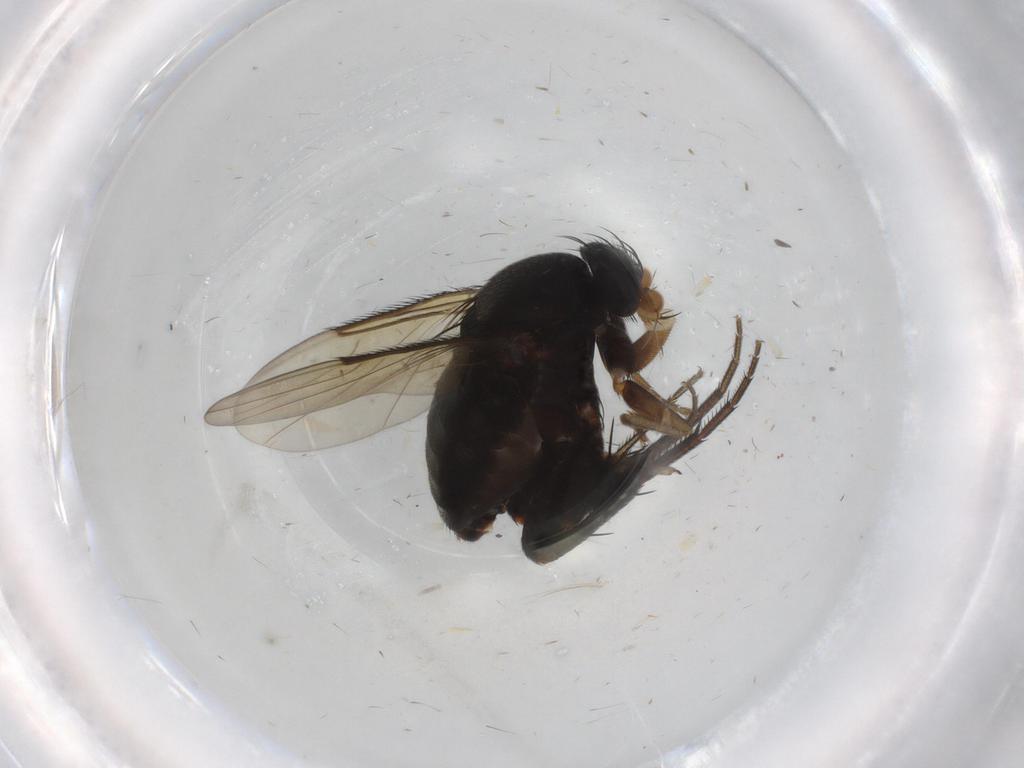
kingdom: Animalia
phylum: Arthropoda
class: Insecta
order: Diptera
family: Phoridae
